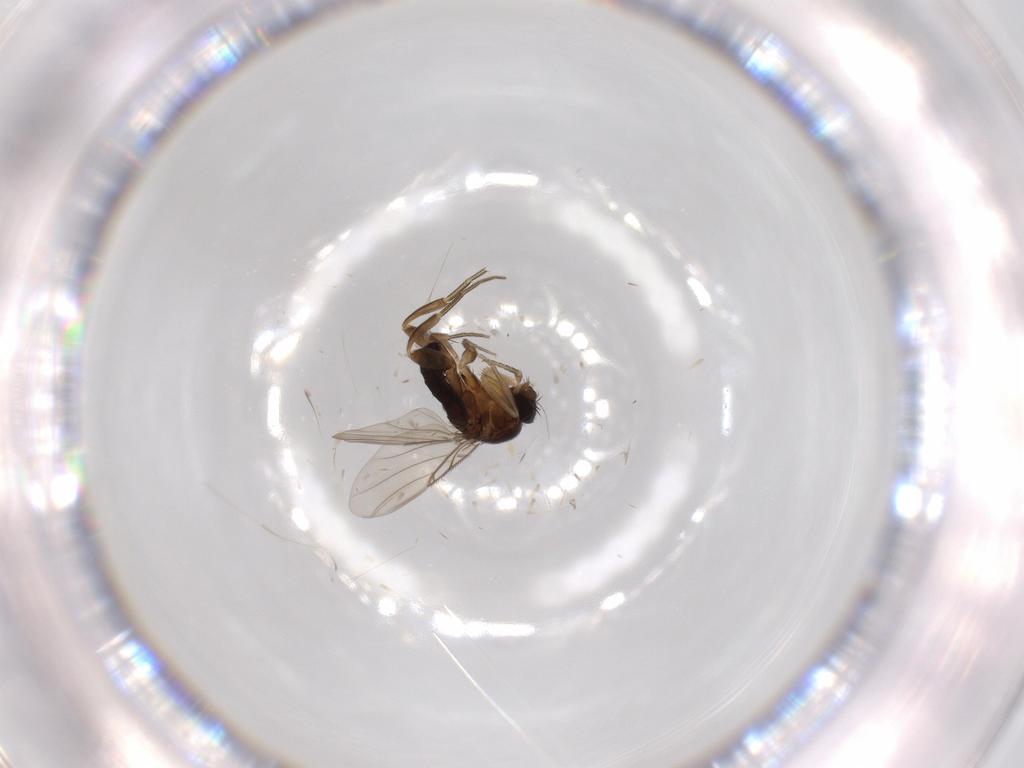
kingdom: Animalia
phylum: Arthropoda
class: Insecta
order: Diptera
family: Phoridae
